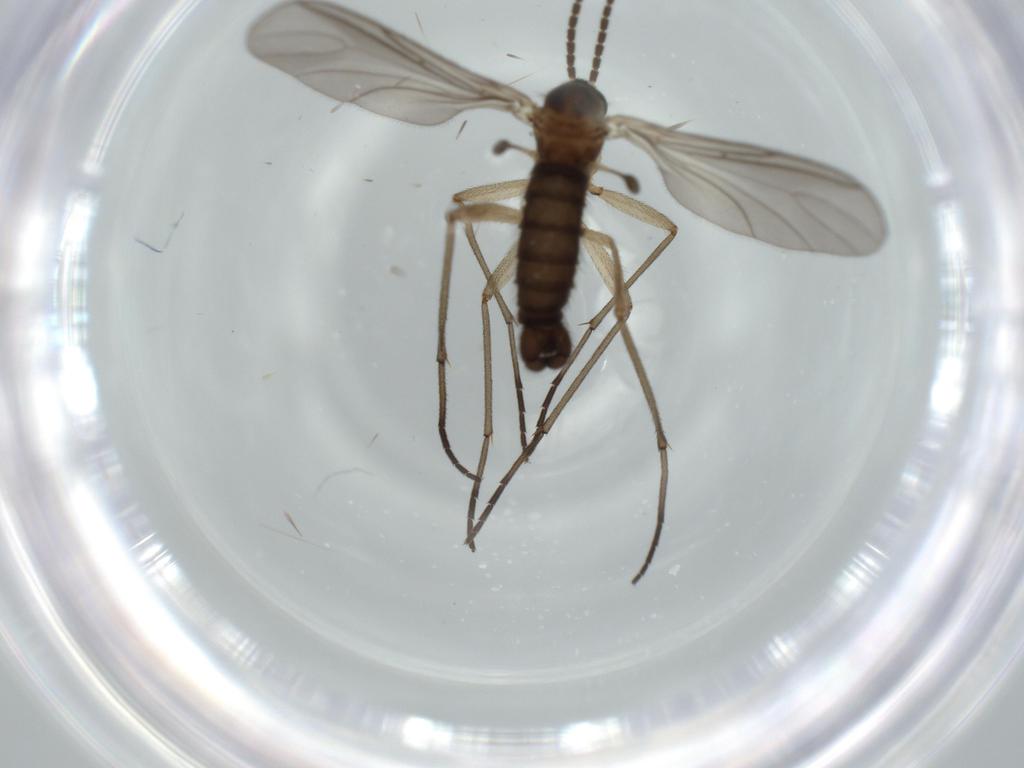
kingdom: Animalia
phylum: Arthropoda
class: Insecta
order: Diptera
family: Sciaridae
